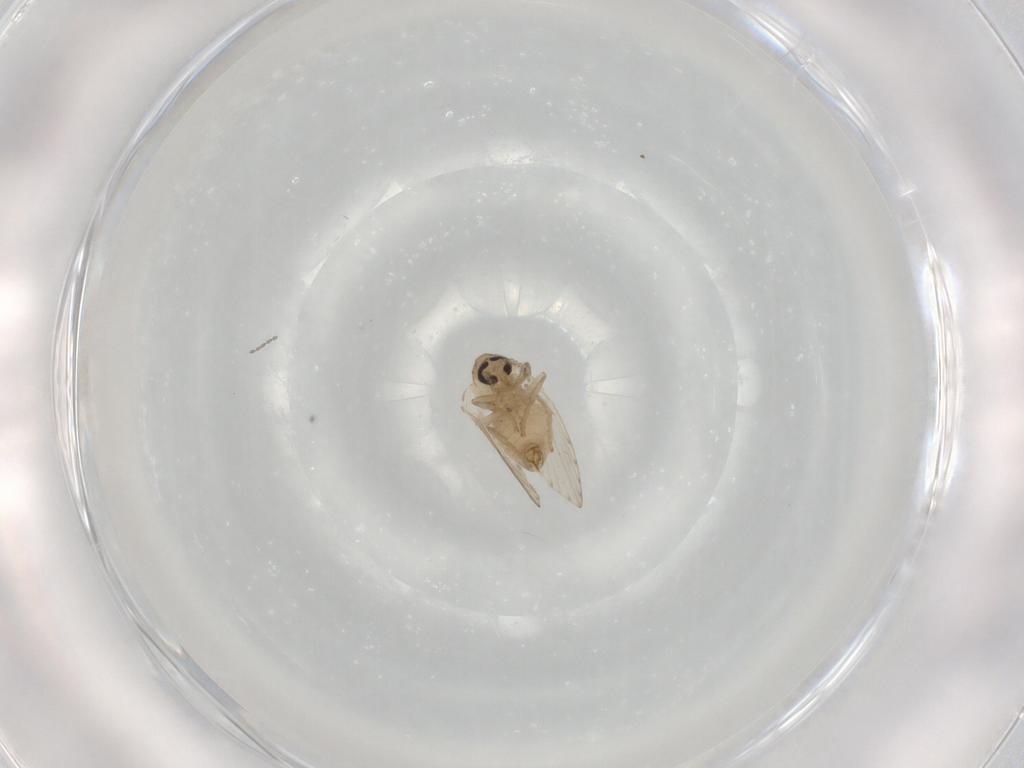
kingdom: Animalia
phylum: Arthropoda
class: Insecta
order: Diptera
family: Psychodidae
